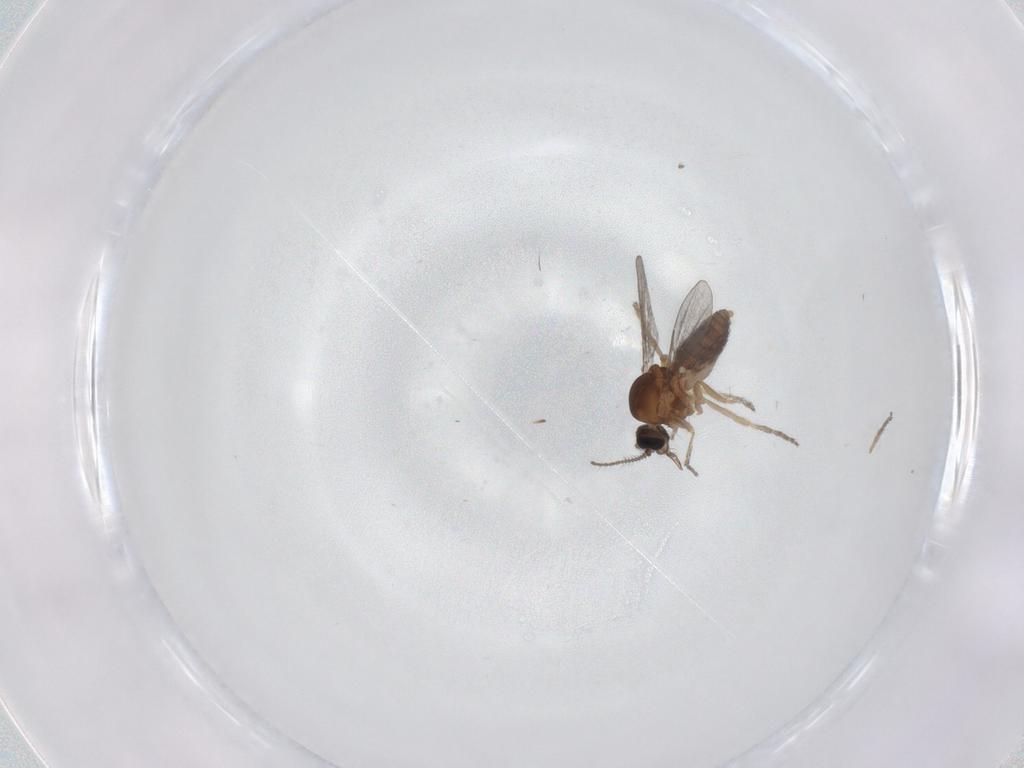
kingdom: Animalia
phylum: Arthropoda
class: Insecta
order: Diptera
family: Ceratopogonidae
